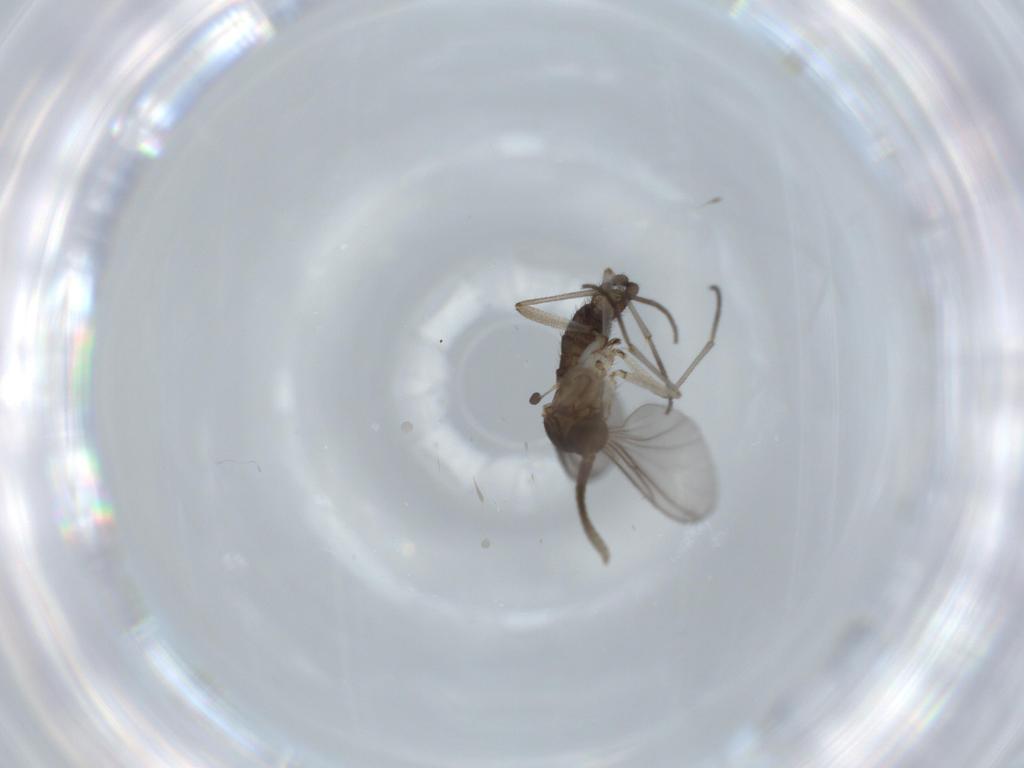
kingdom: Animalia
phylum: Arthropoda
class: Insecta
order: Diptera
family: Sciaridae
